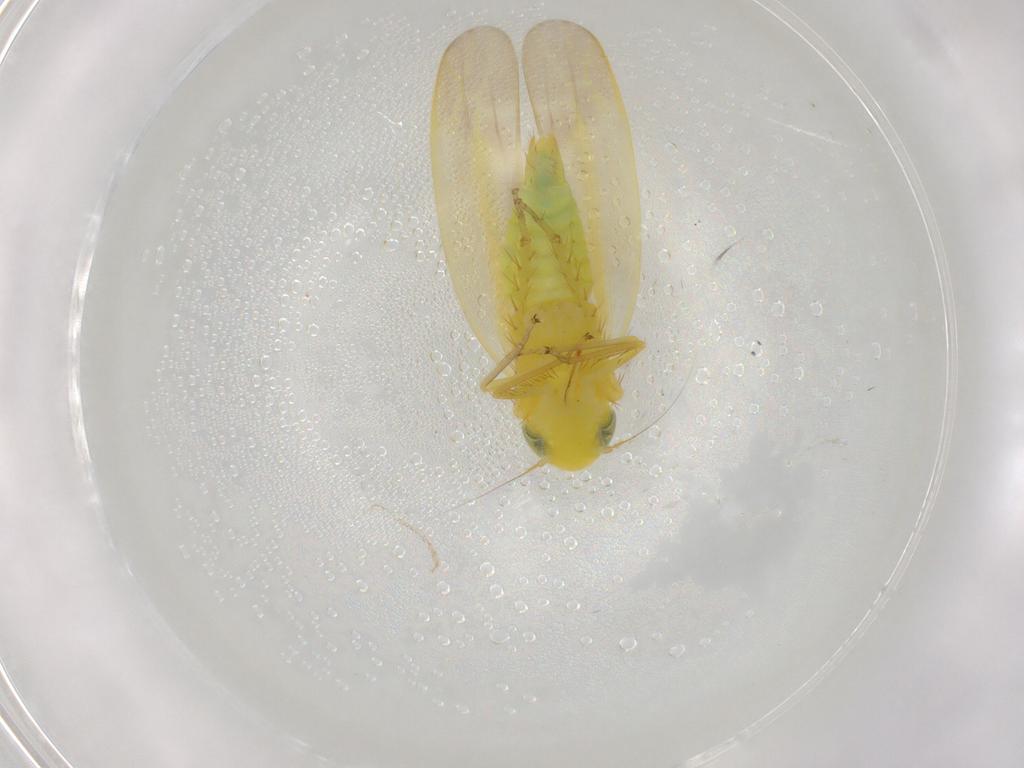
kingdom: Animalia
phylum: Arthropoda
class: Insecta
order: Hemiptera
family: Cicadellidae
